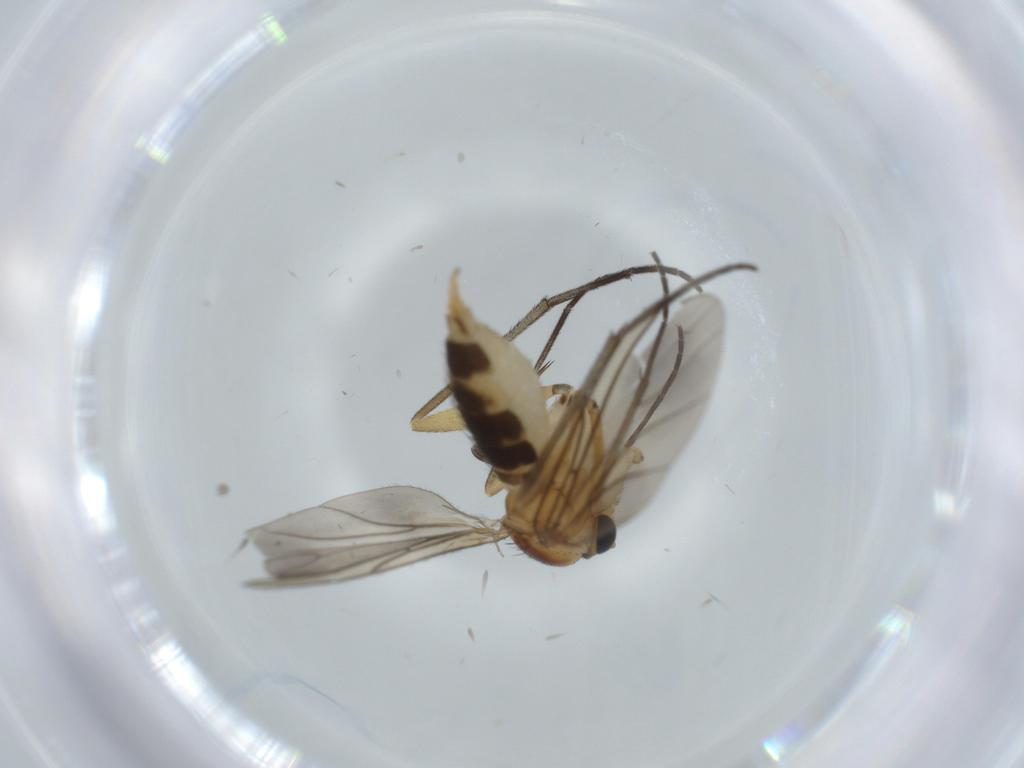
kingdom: Animalia
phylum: Arthropoda
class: Insecta
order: Diptera
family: Sciaridae
